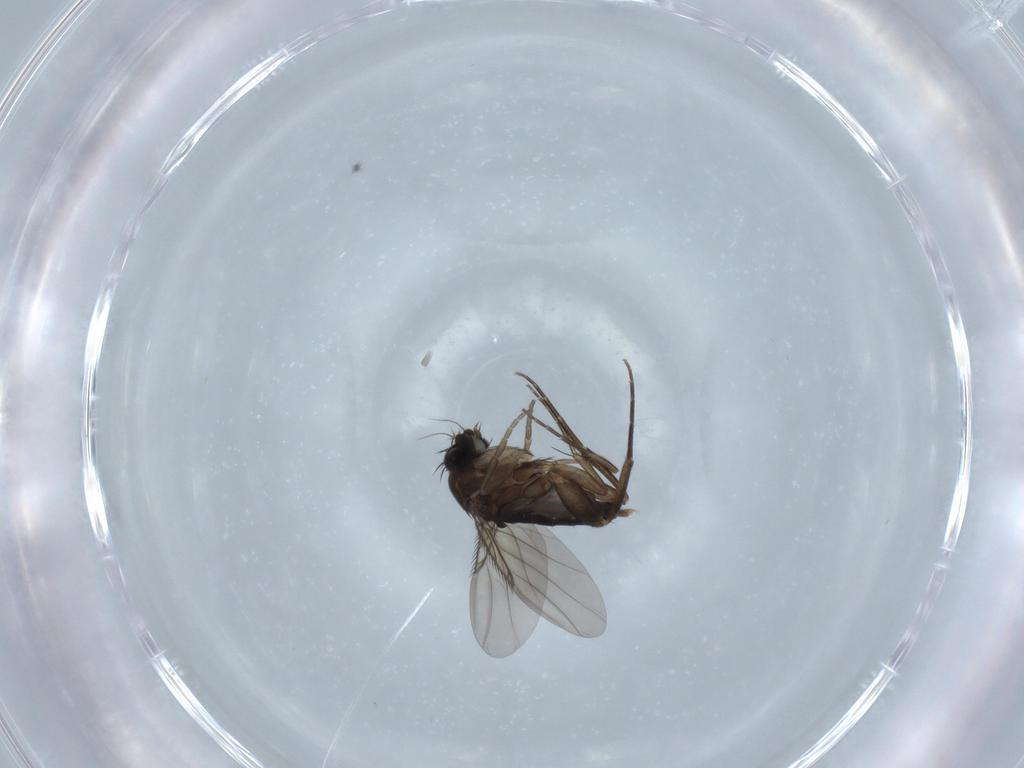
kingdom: Animalia
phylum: Arthropoda
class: Insecta
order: Diptera
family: Phoridae
